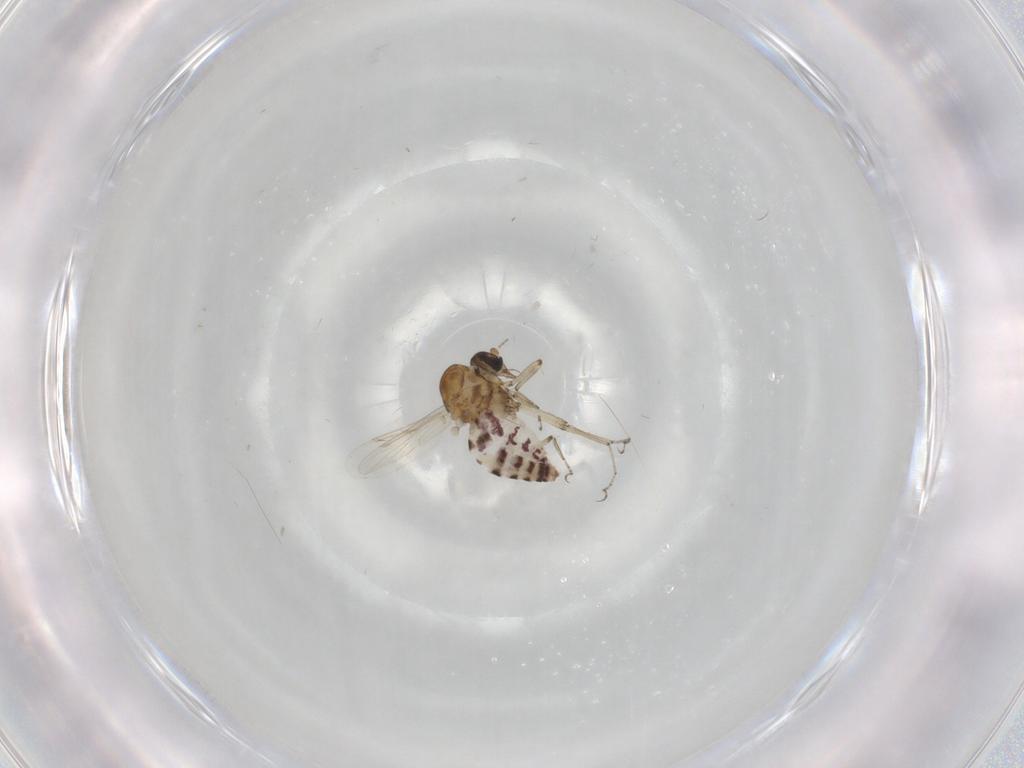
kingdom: Animalia
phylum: Arthropoda
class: Insecta
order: Diptera
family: Ceratopogonidae
